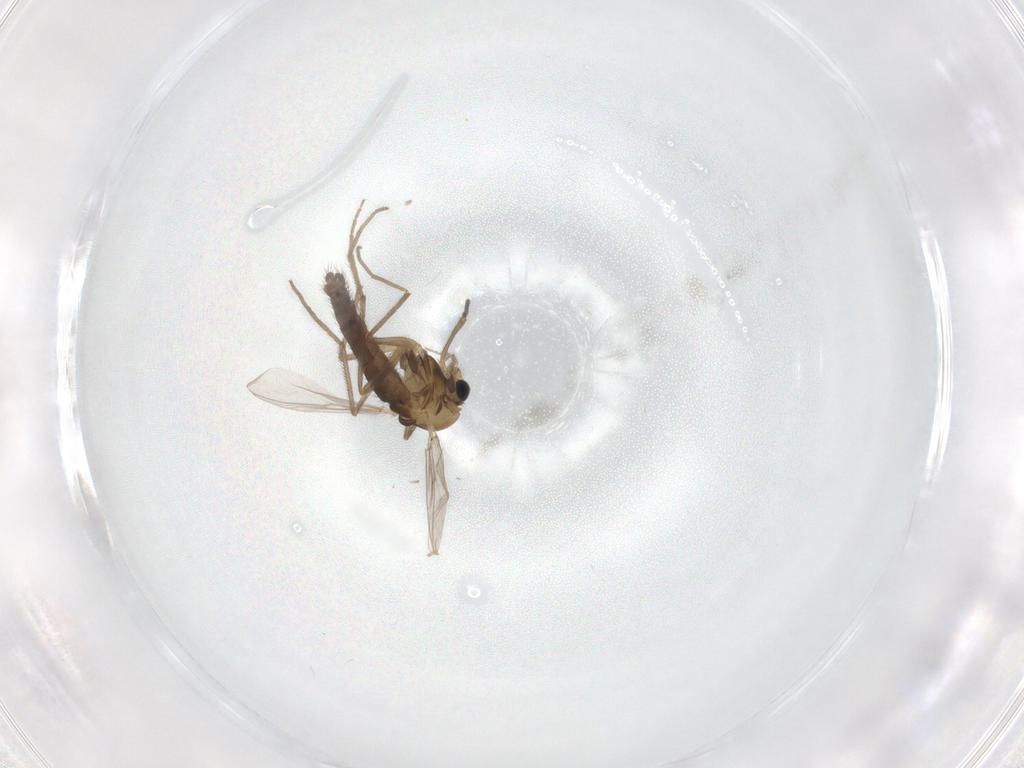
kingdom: Animalia
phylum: Arthropoda
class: Insecta
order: Diptera
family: Chironomidae
